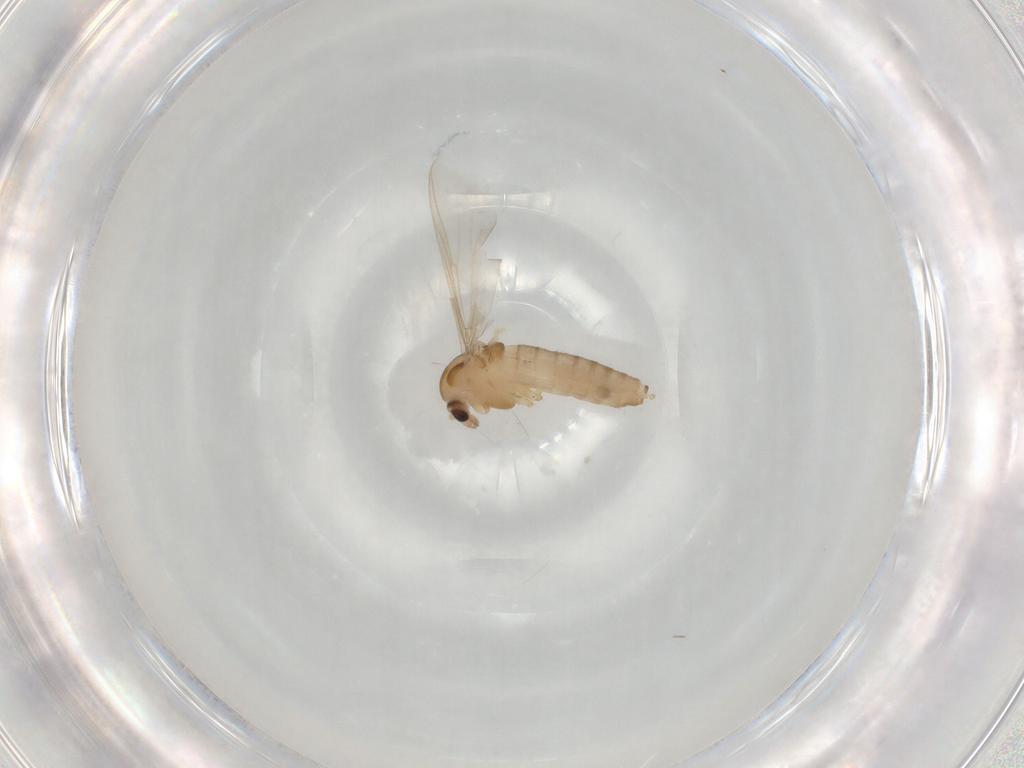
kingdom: Animalia
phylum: Arthropoda
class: Insecta
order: Diptera
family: Chironomidae
